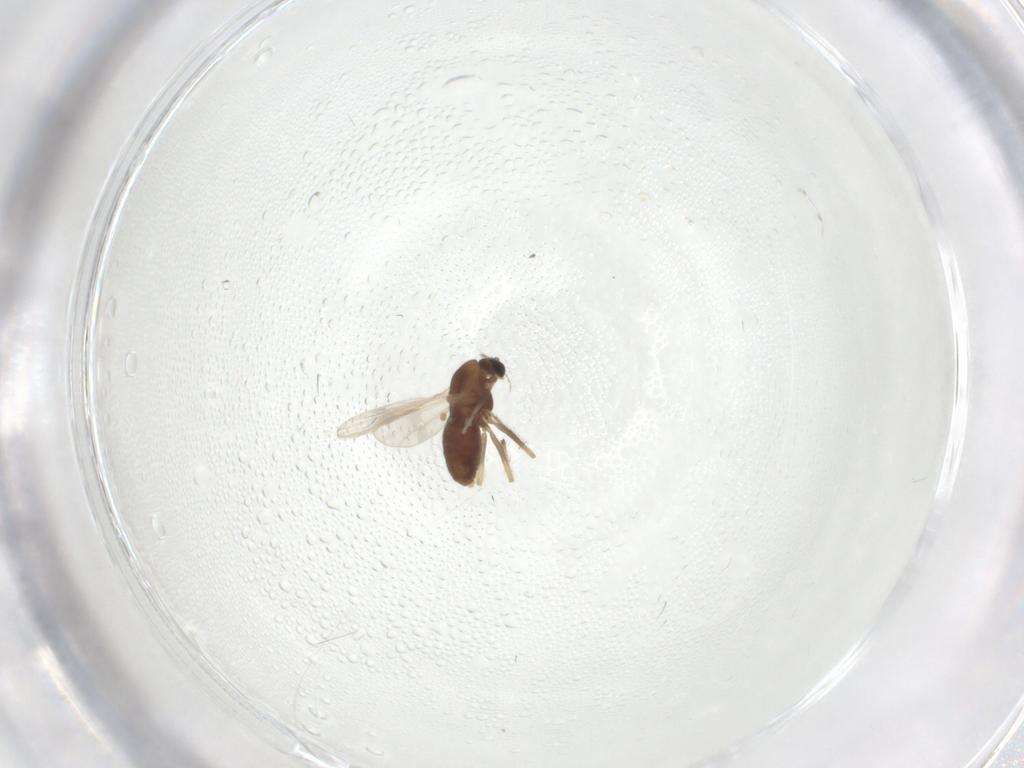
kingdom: Animalia
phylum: Arthropoda
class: Insecta
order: Diptera
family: Chironomidae
